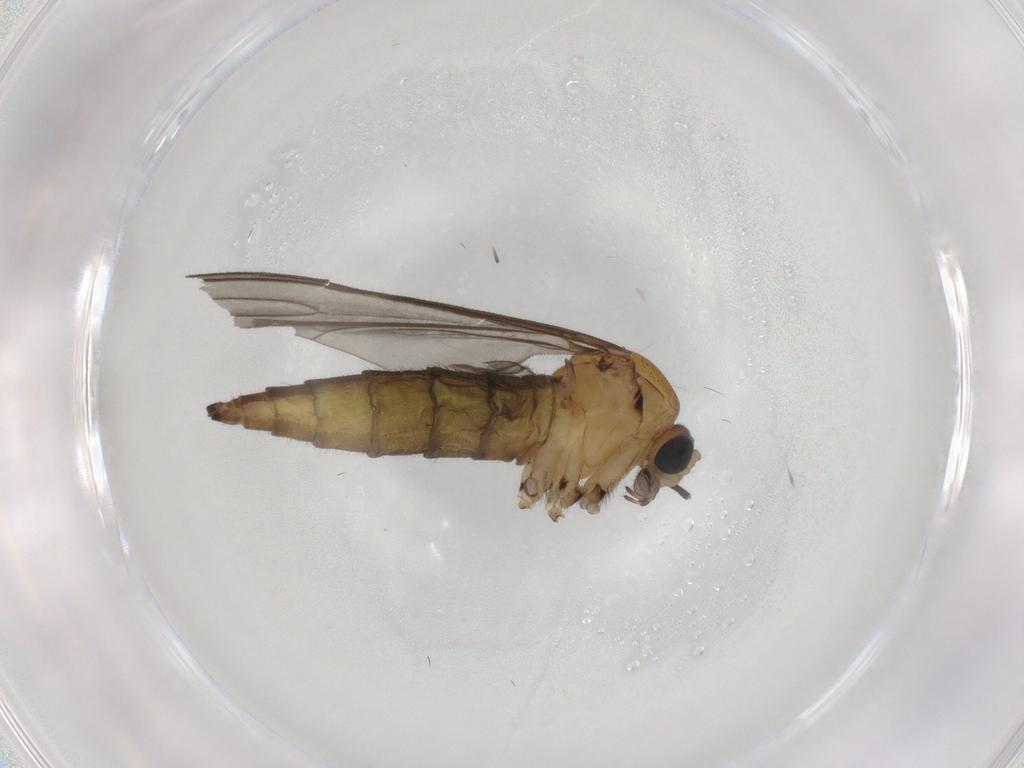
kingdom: Animalia
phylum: Arthropoda
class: Insecta
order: Diptera
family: Sciaridae
